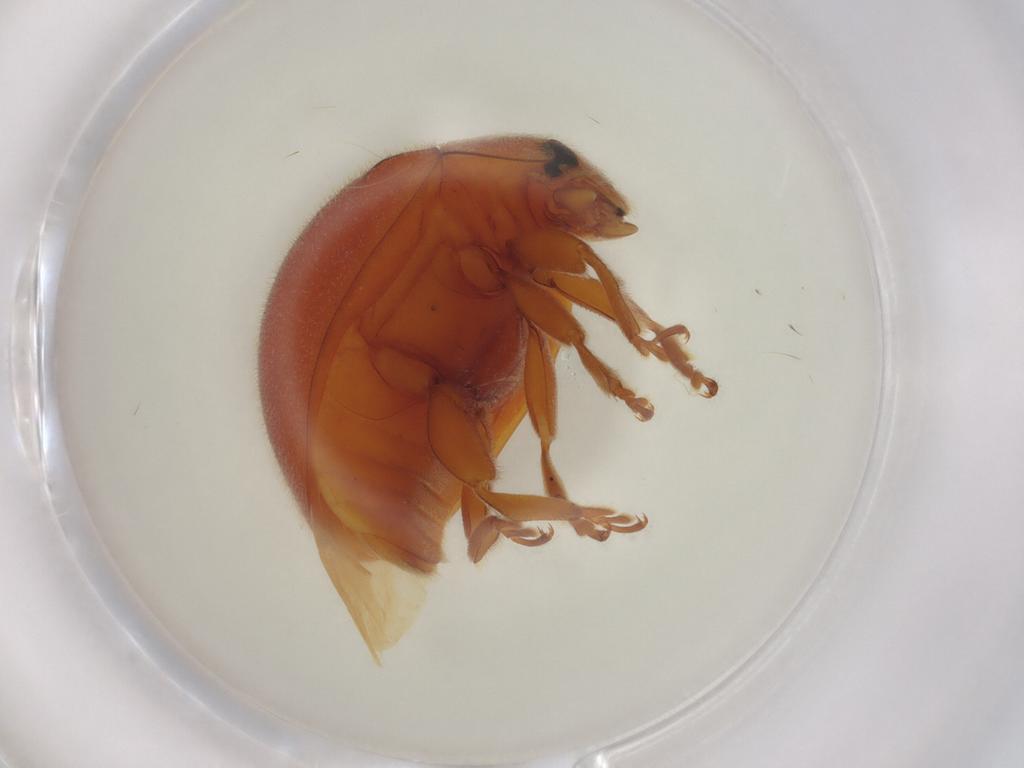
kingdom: Animalia
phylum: Arthropoda
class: Insecta
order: Coleoptera
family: Coccinellidae
